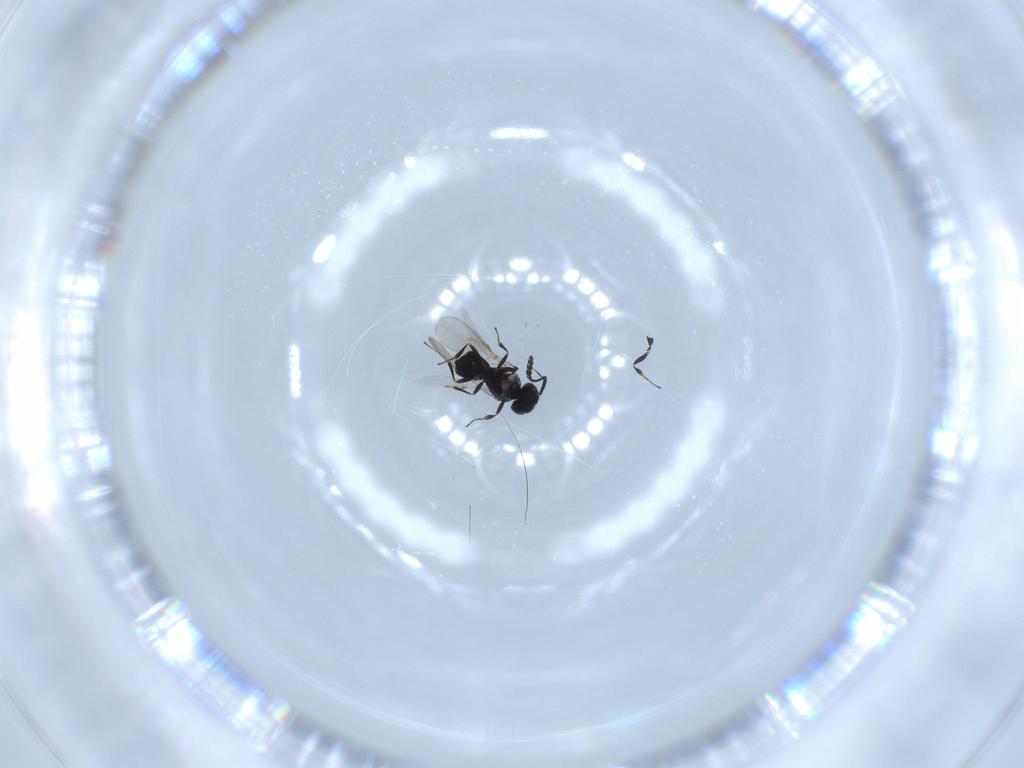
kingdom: Animalia
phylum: Arthropoda
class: Insecta
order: Hymenoptera
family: Scelionidae
